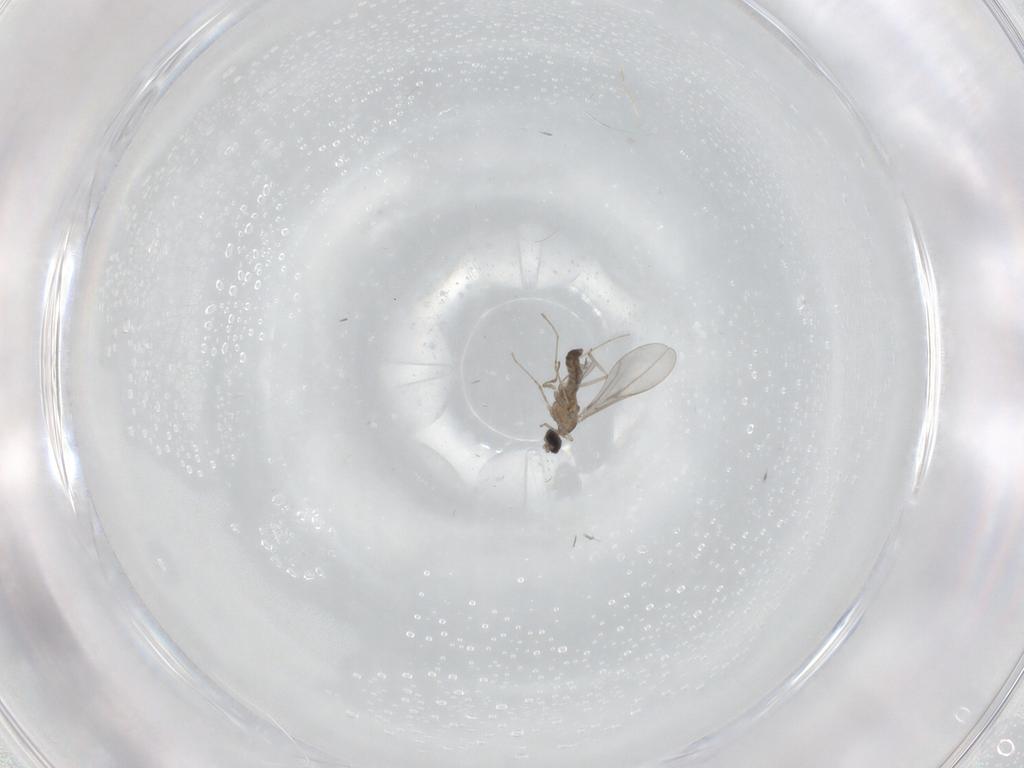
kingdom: Animalia
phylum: Arthropoda
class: Insecta
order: Diptera
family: Cecidomyiidae
